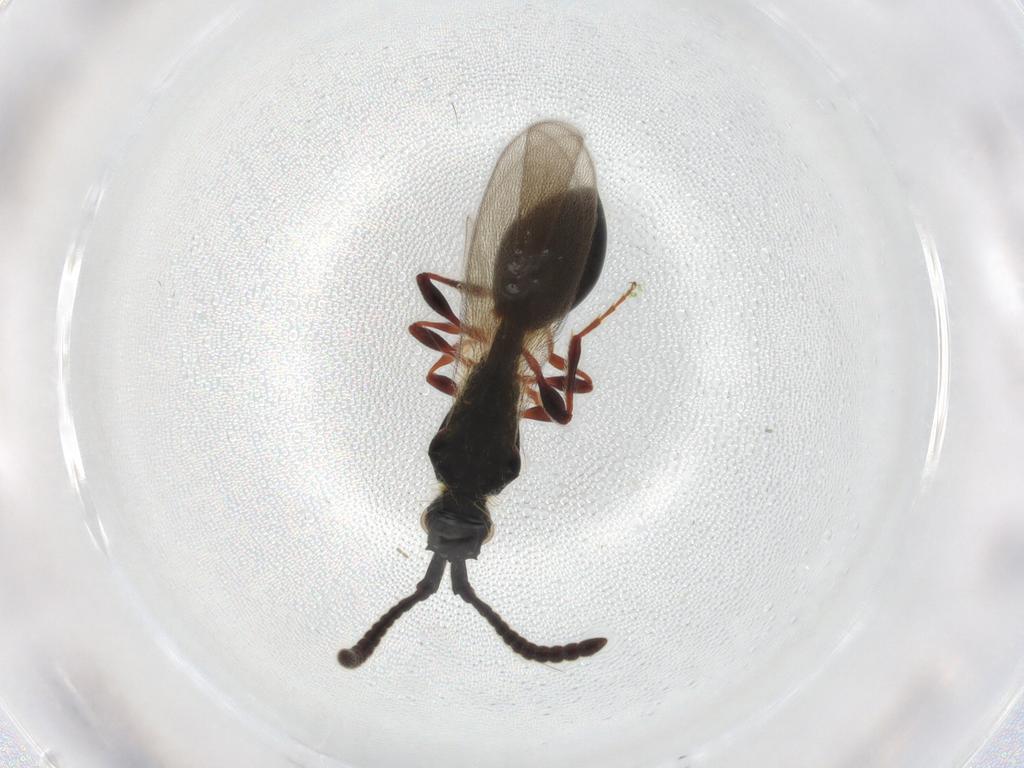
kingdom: Animalia
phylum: Arthropoda
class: Insecta
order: Hymenoptera
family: Diapriidae
